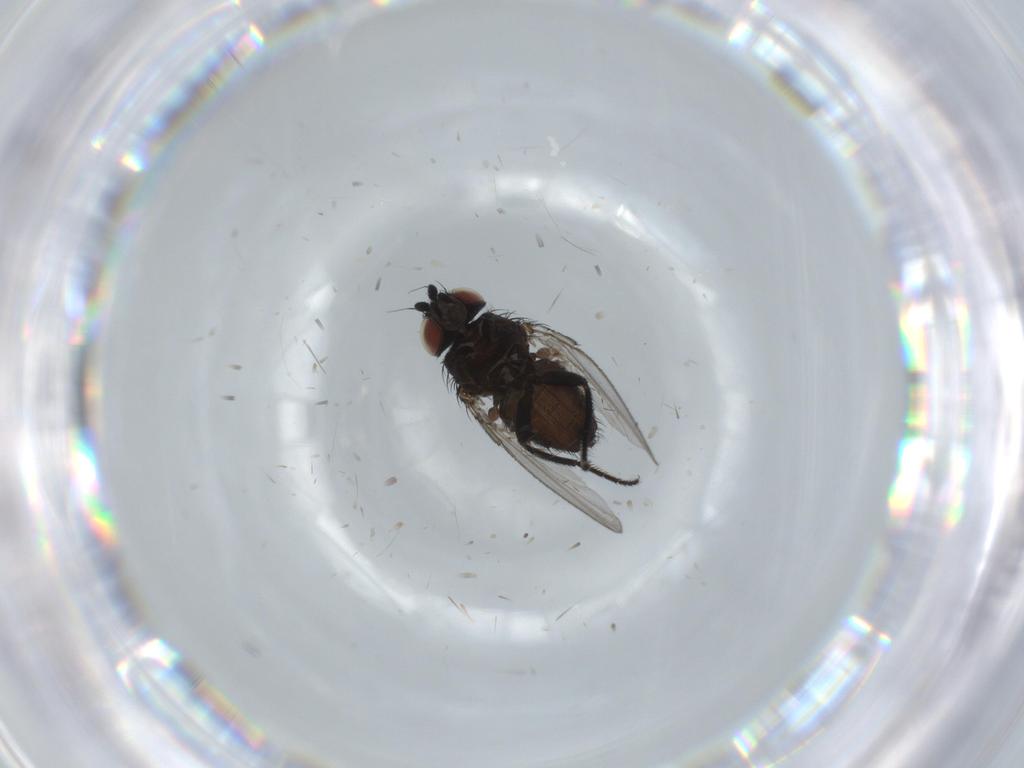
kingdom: Animalia
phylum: Arthropoda
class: Insecta
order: Diptera
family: Milichiidae
